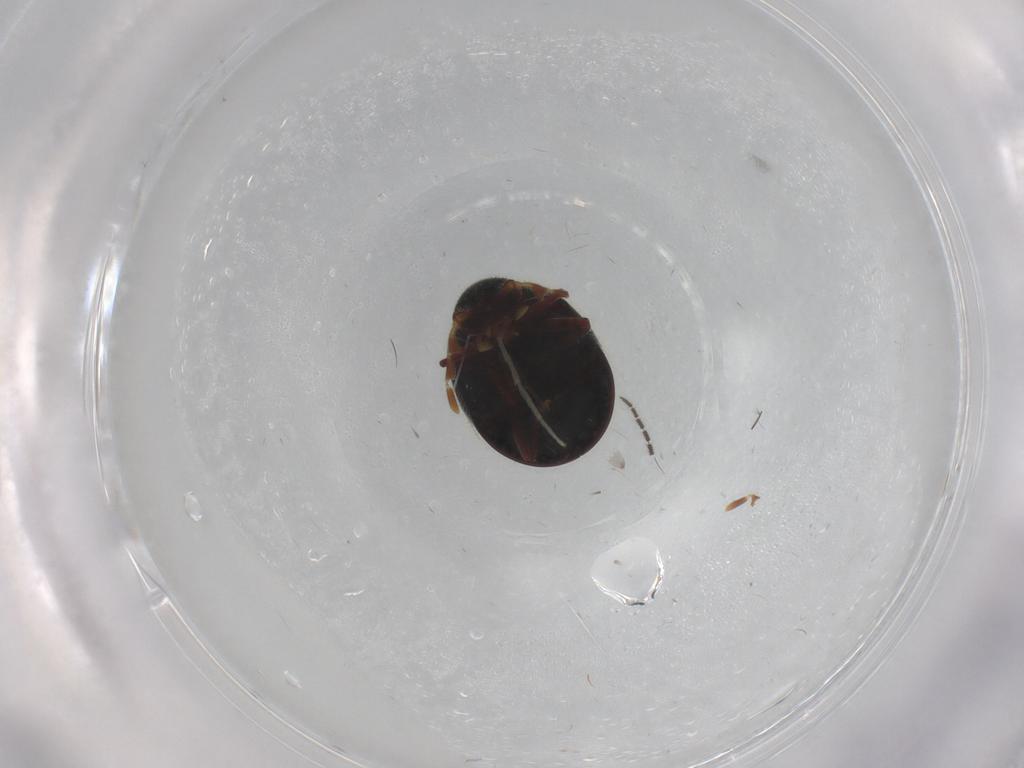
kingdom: Animalia
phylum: Arthropoda
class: Insecta
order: Coleoptera
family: Ptinidae
